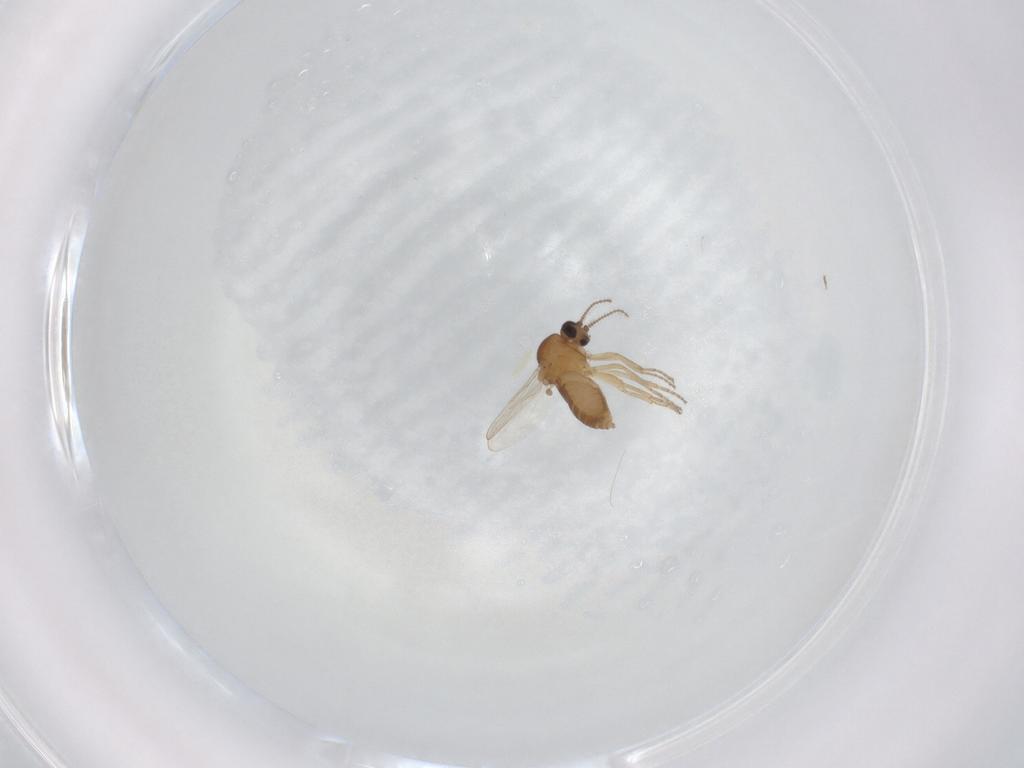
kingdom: Animalia
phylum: Arthropoda
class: Insecta
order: Diptera
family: Ceratopogonidae
